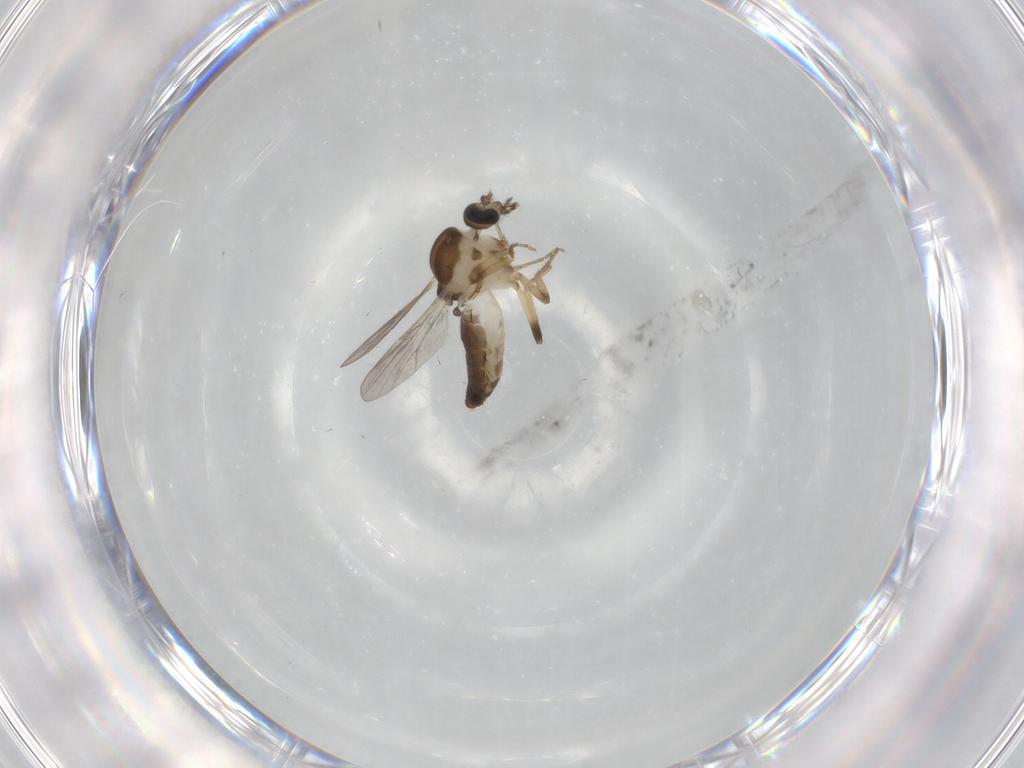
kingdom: Animalia
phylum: Arthropoda
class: Insecta
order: Diptera
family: Ceratopogonidae
